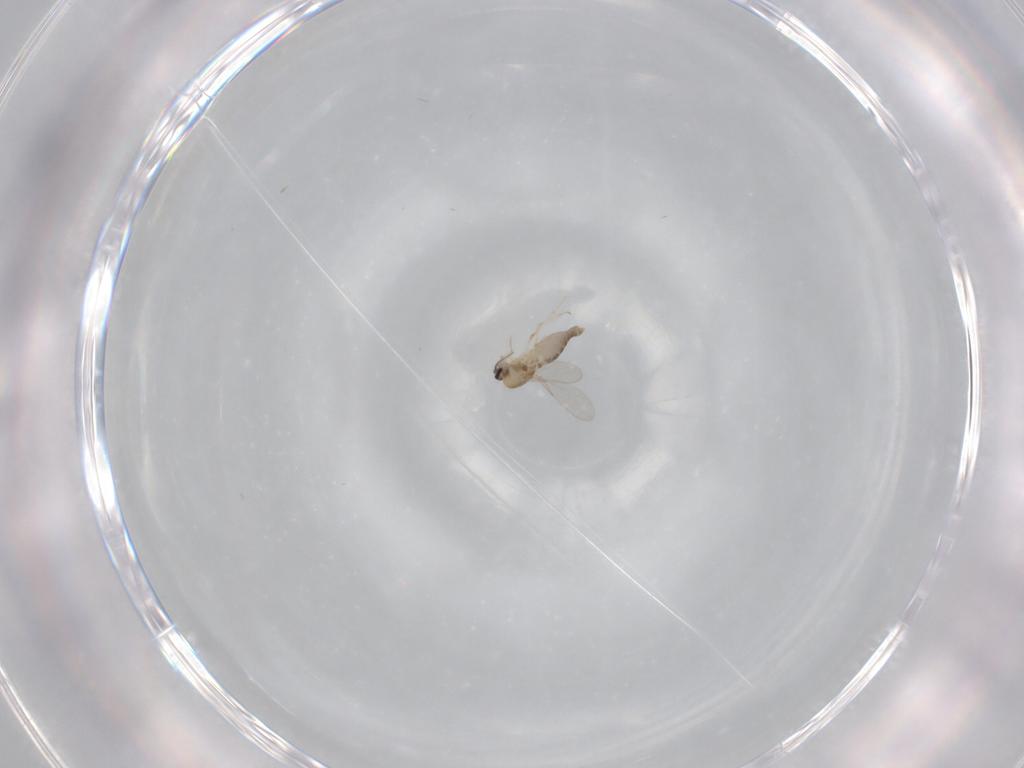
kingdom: Animalia
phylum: Arthropoda
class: Insecta
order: Diptera
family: Ceratopogonidae
